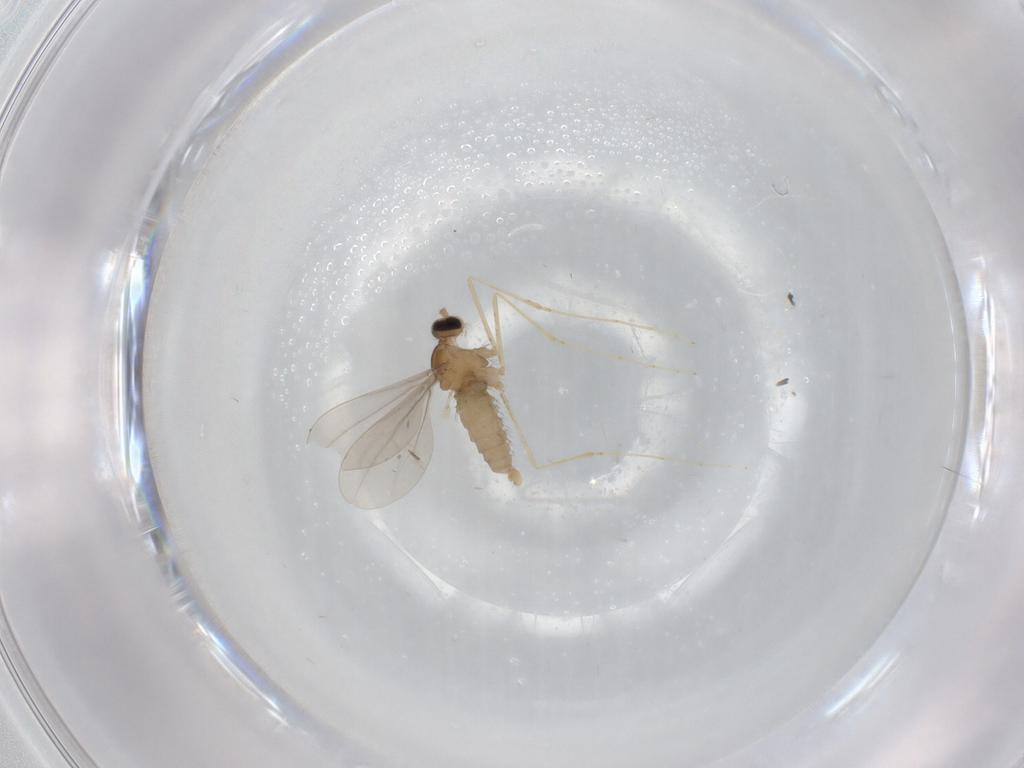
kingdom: Animalia
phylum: Arthropoda
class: Insecta
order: Diptera
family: Cecidomyiidae
